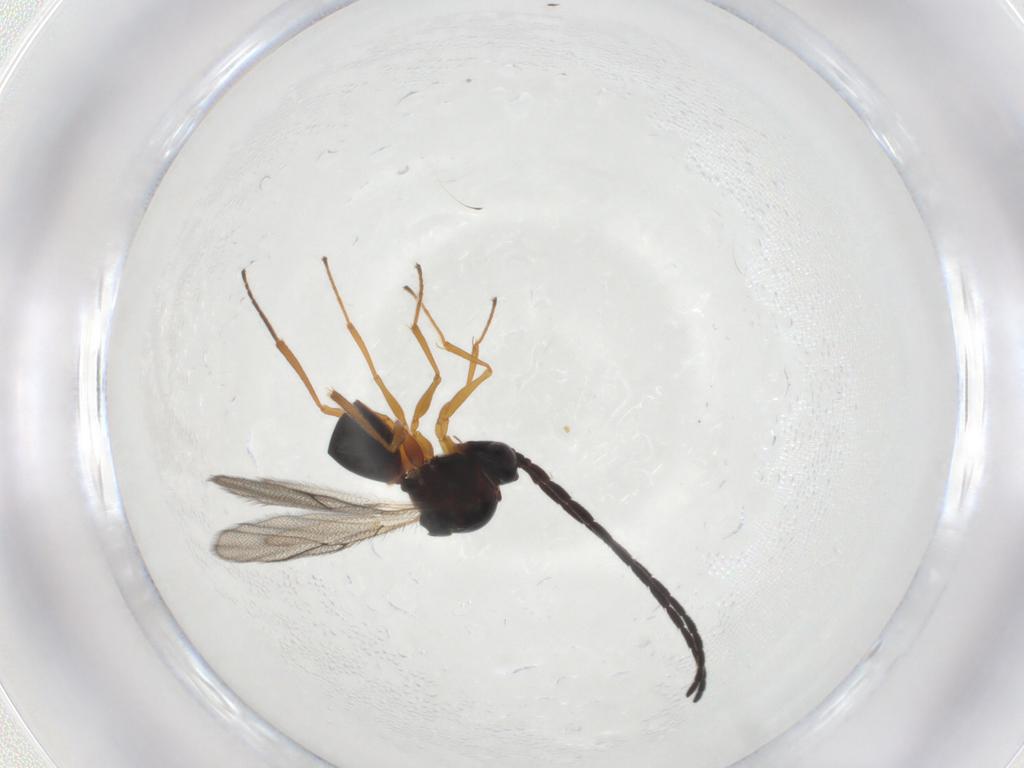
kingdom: Animalia
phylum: Arthropoda
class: Insecta
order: Hymenoptera
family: Figitidae
